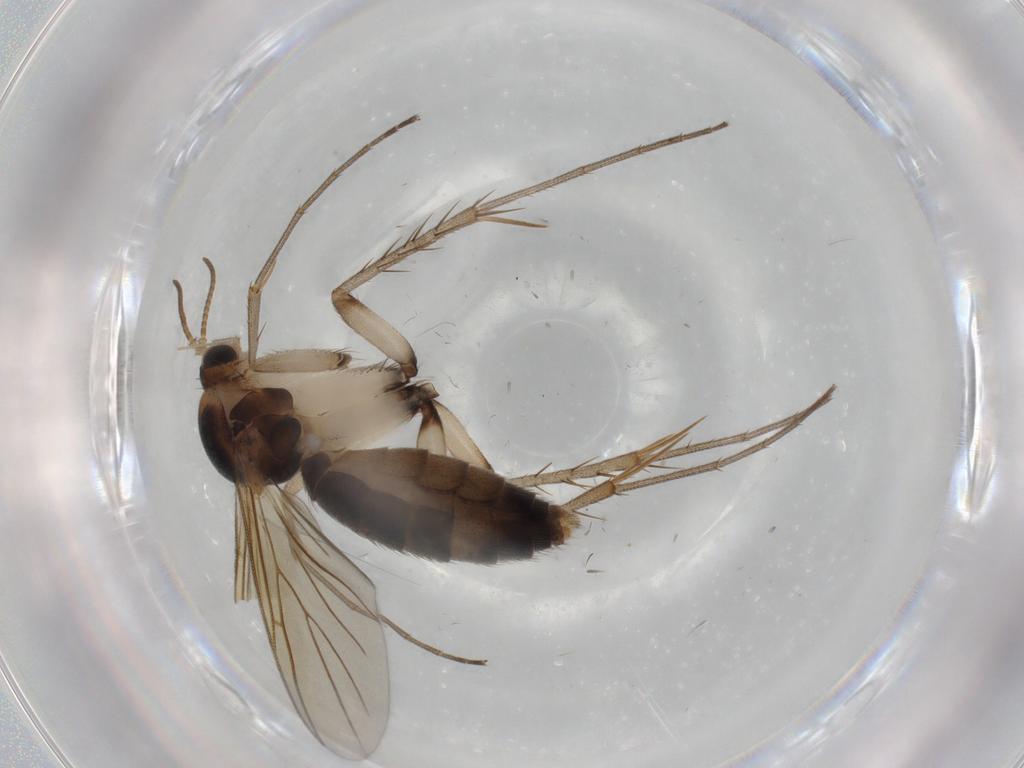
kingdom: Animalia
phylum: Arthropoda
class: Insecta
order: Diptera
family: Mycetophilidae
